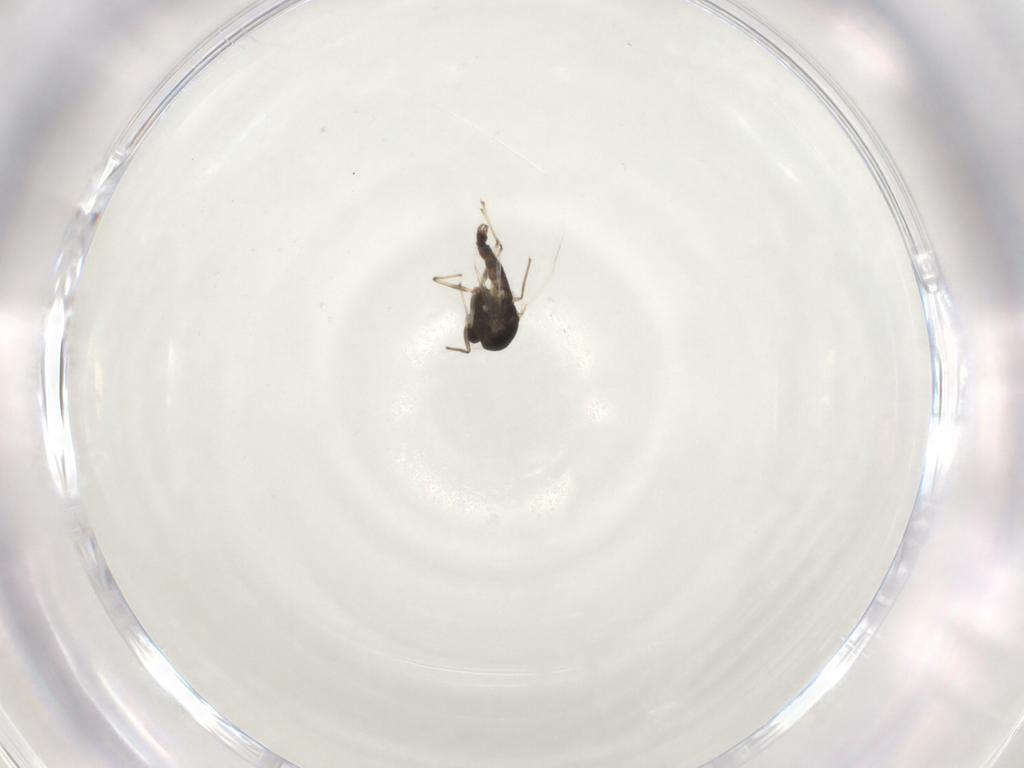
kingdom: Animalia
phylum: Arthropoda
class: Insecta
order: Diptera
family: Chironomidae
